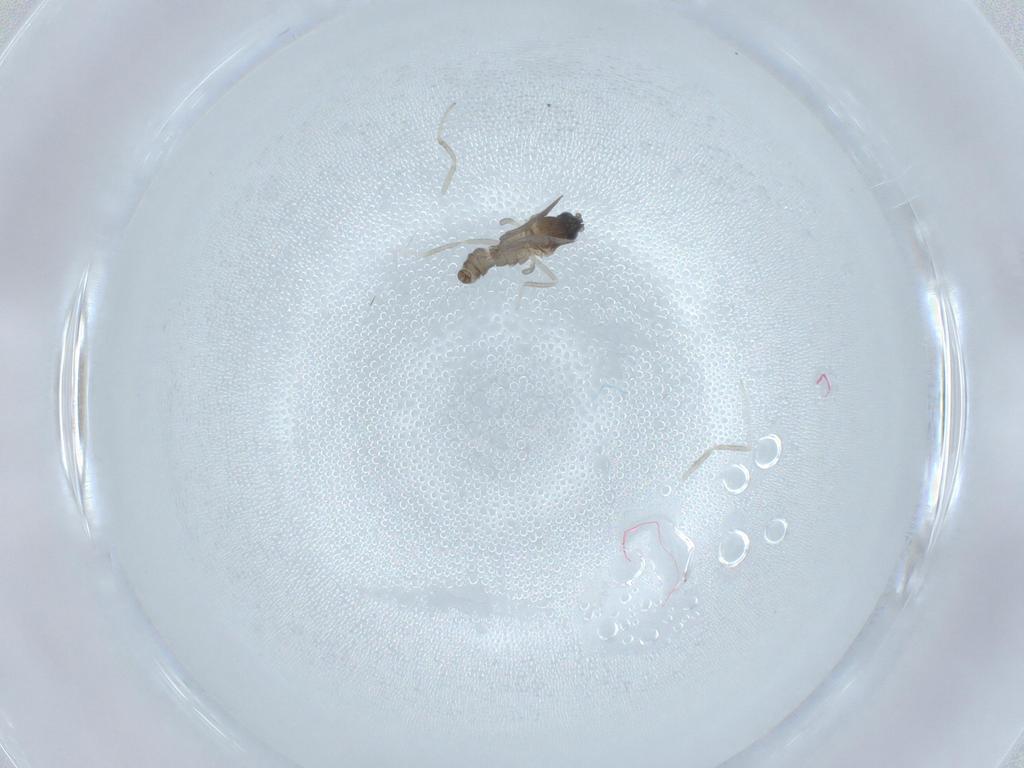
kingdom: Animalia
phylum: Arthropoda
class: Insecta
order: Diptera
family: Cecidomyiidae
